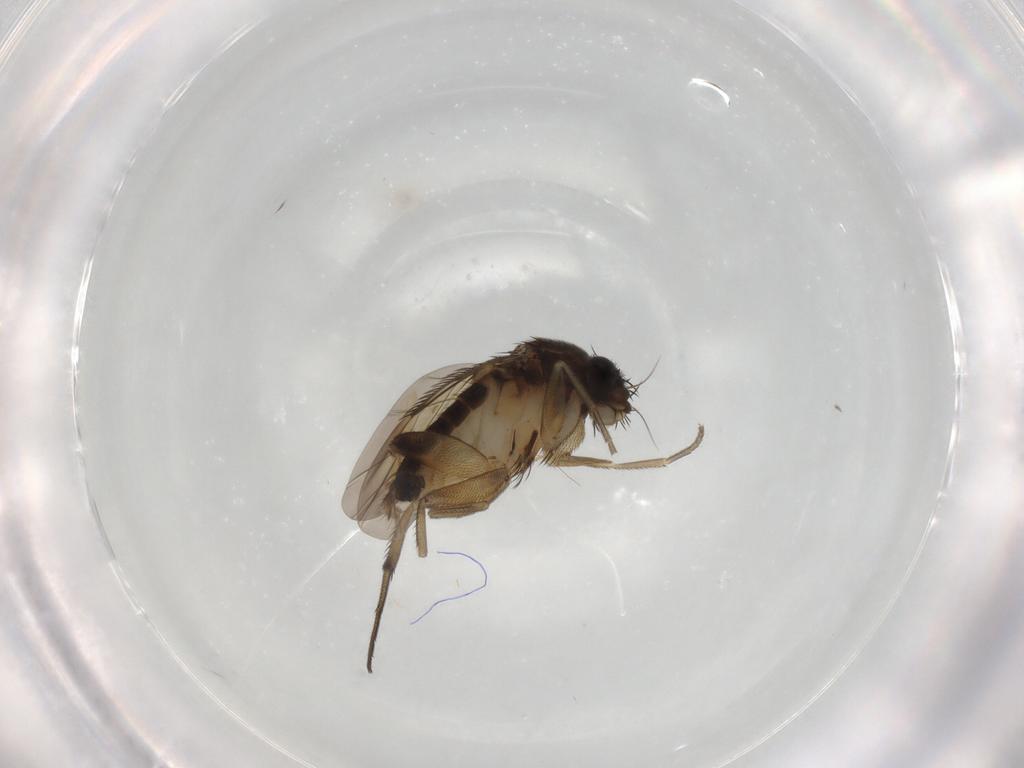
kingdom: Animalia
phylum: Arthropoda
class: Insecta
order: Diptera
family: Phoridae
